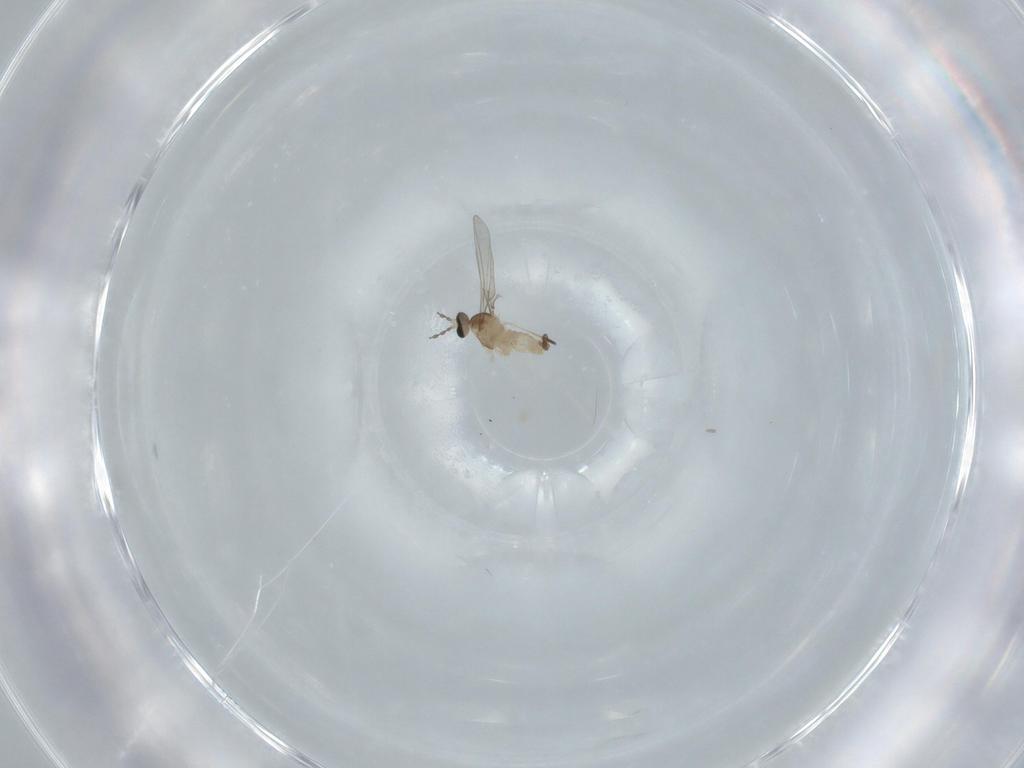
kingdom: Animalia
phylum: Arthropoda
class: Insecta
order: Diptera
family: Cecidomyiidae
